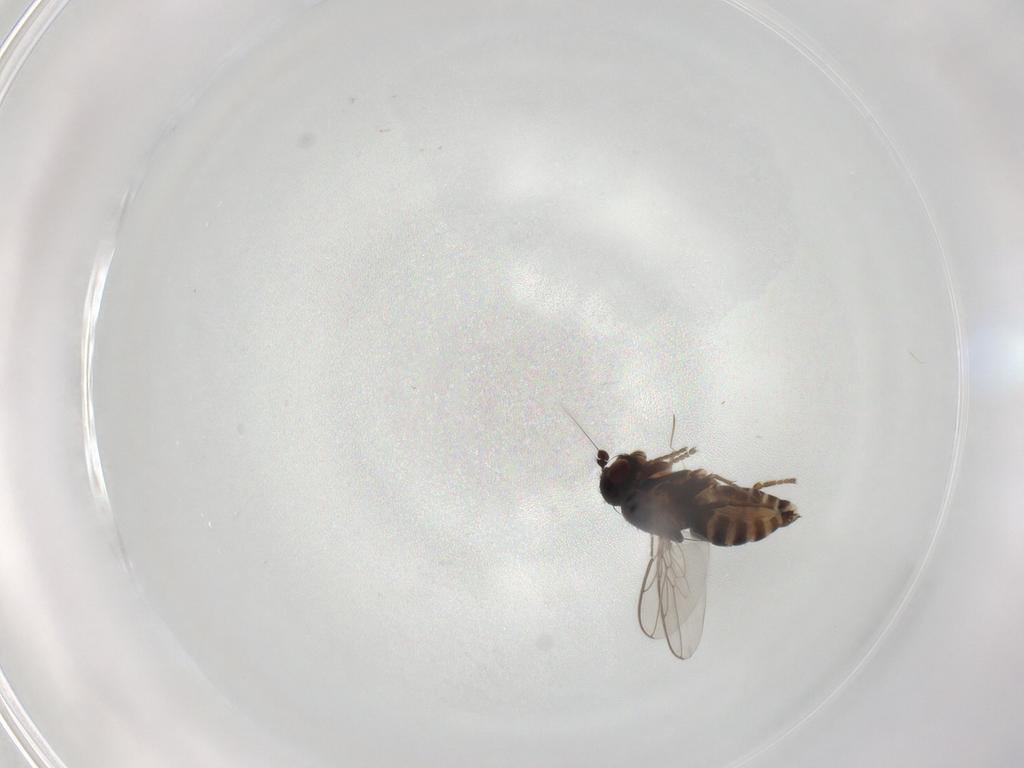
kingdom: Animalia
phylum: Arthropoda
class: Insecta
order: Diptera
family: Sphaeroceridae
